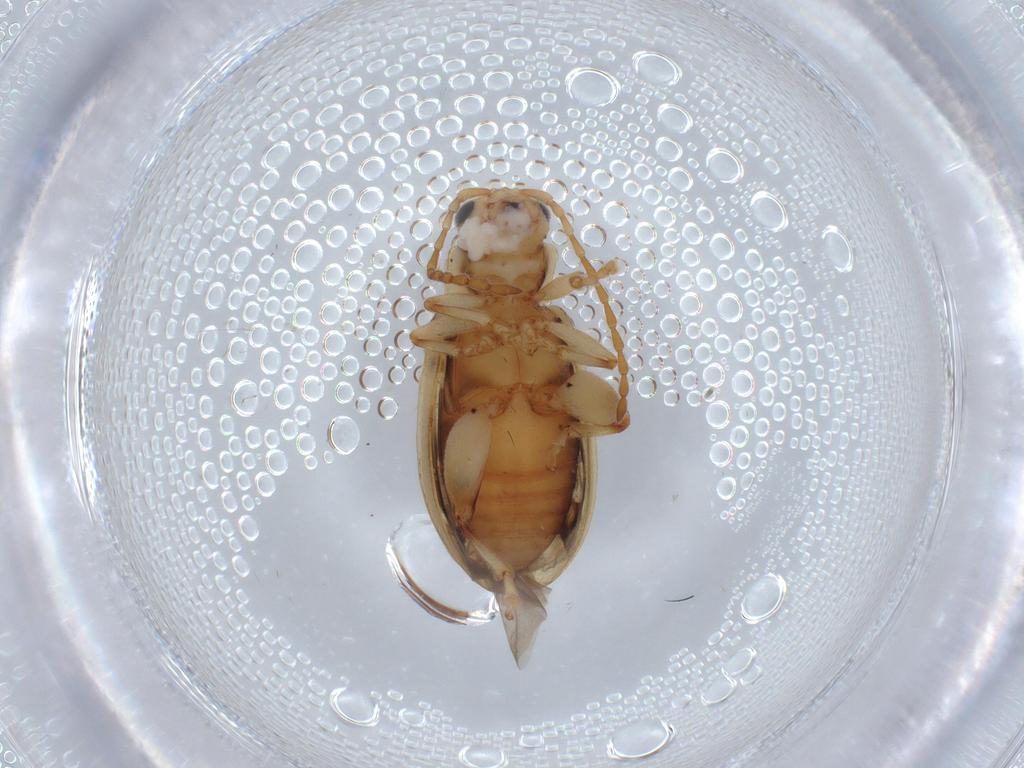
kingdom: Animalia
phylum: Arthropoda
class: Insecta
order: Coleoptera
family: Chrysomelidae
